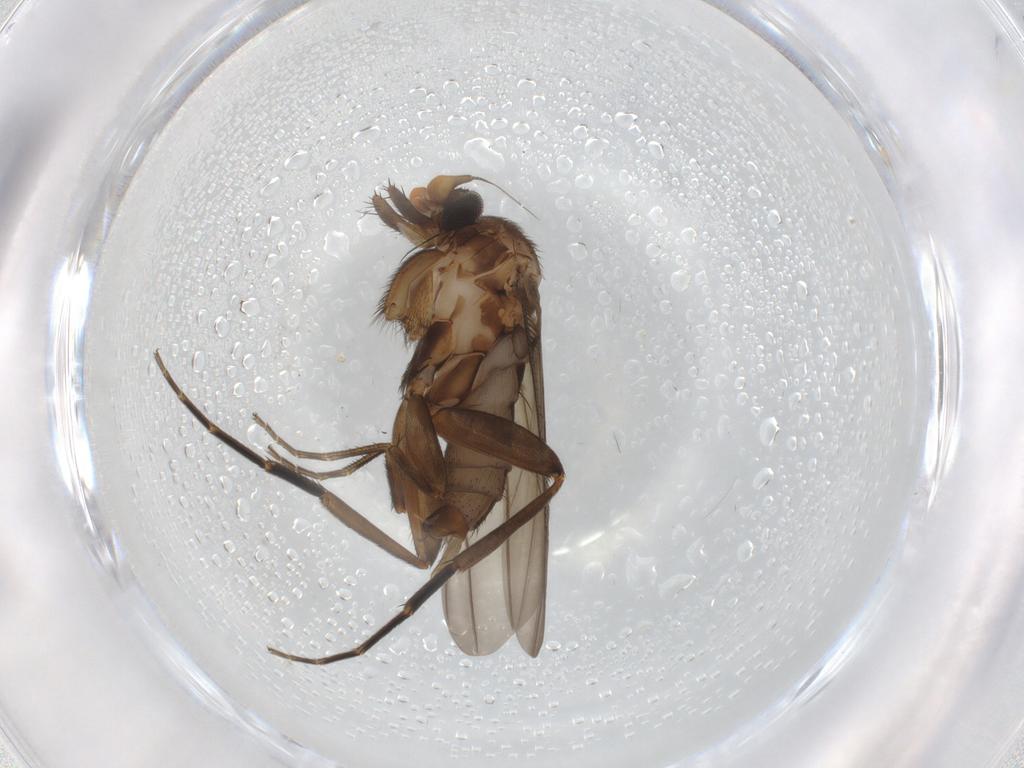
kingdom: Animalia
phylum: Arthropoda
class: Insecta
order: Diptera
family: Phoridae
